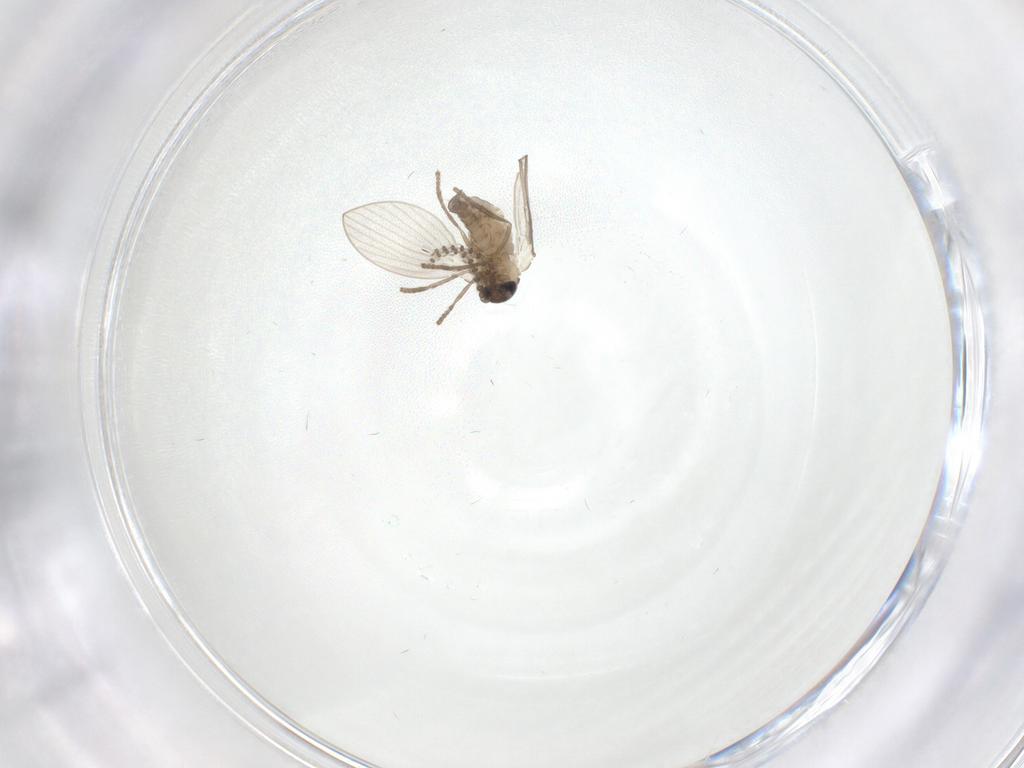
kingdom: Animalia
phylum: Arthropoda
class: Insecta
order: Diptera
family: Psychodidae
